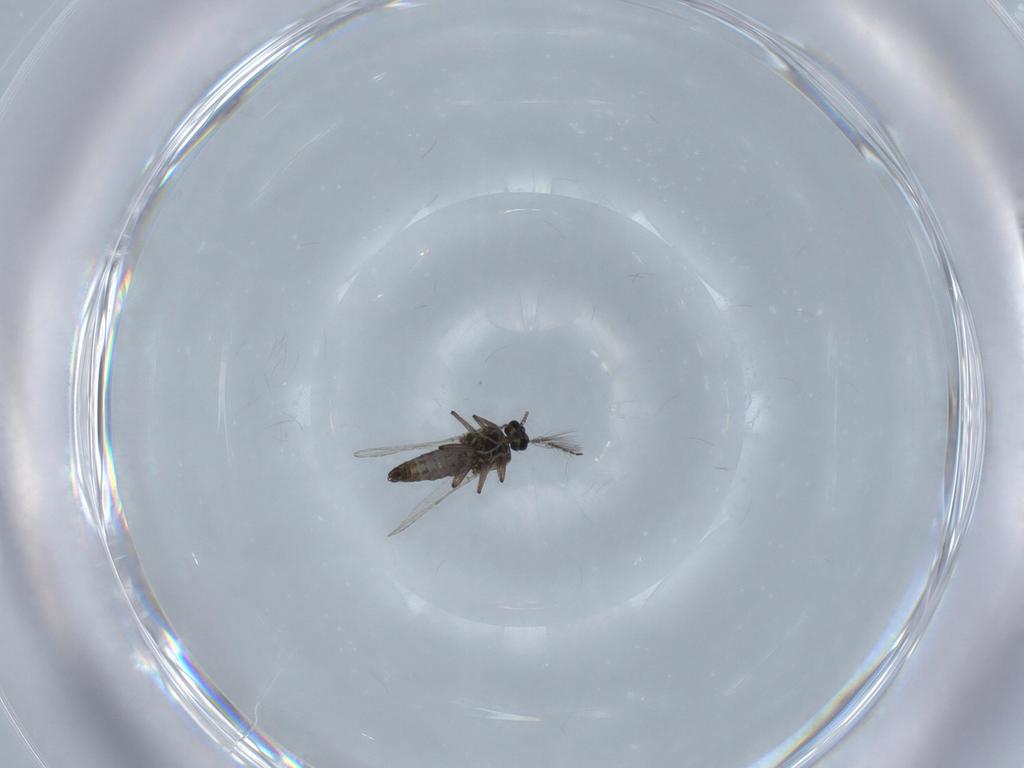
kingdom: Animalia
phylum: Arthropoda
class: Insecta
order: Diptera
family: Ceratopogonidae
